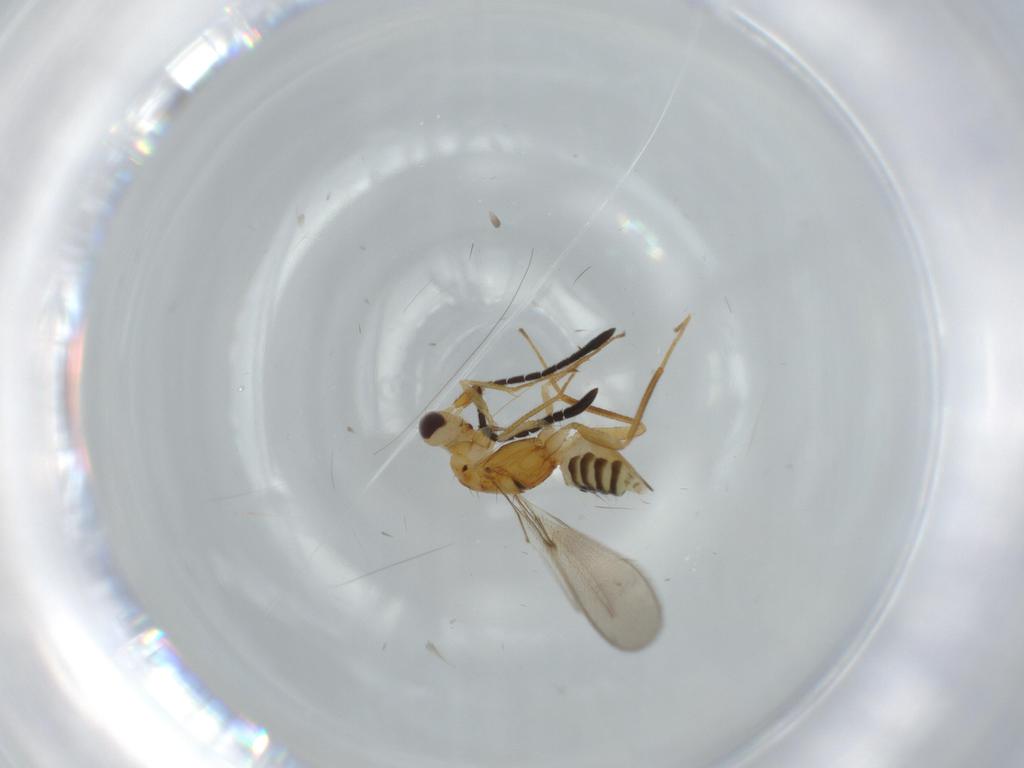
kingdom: Animalia
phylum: Arthropoda
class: Insecta
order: Hymenoptera
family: Mymaridae
